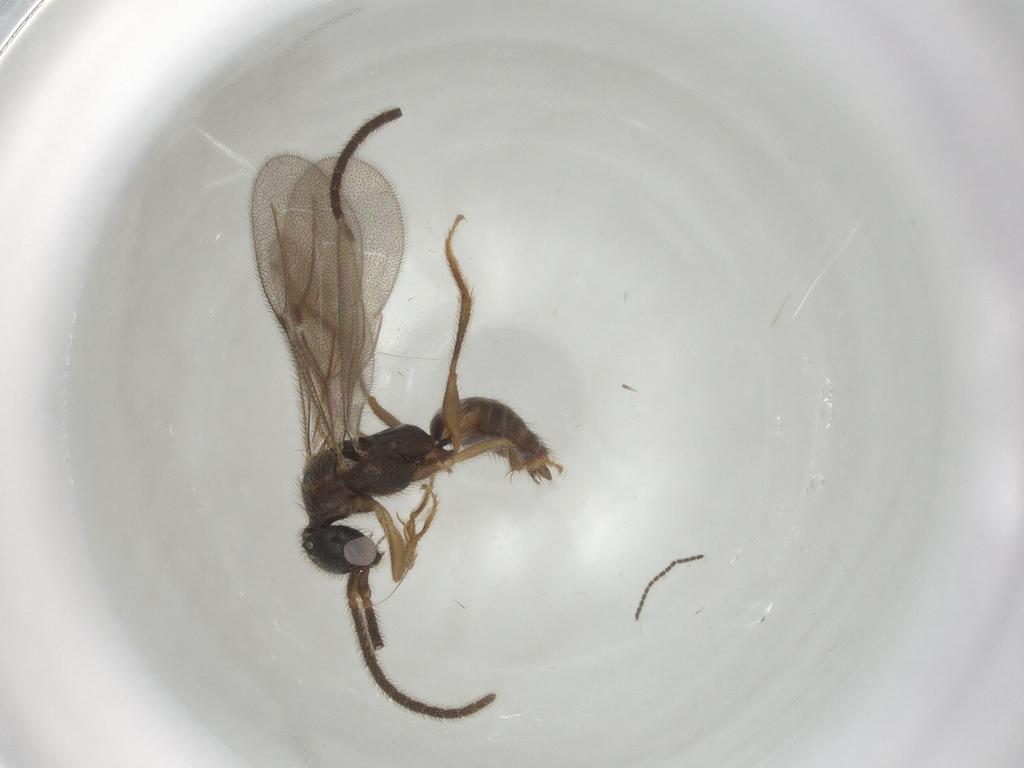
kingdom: Animalia
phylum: Arthropoda
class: Insecta
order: Hymenoptera
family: Bethylidae
